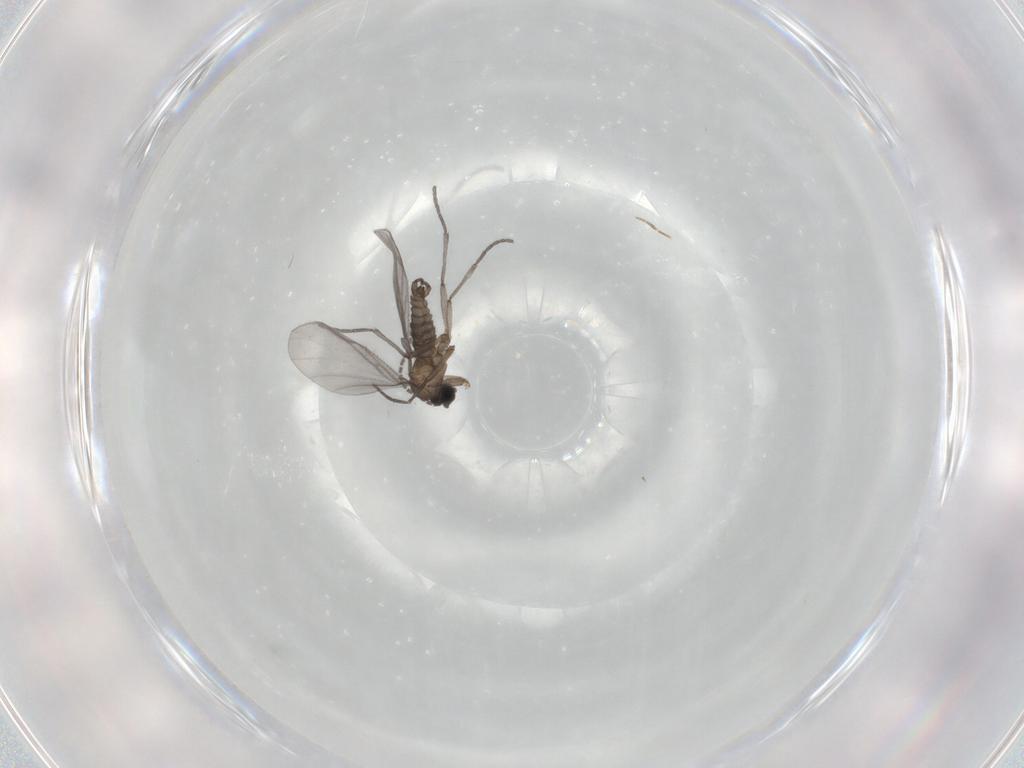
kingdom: Animalia
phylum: Arthropoda
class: Insecta
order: Diptera
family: Sciaridae
